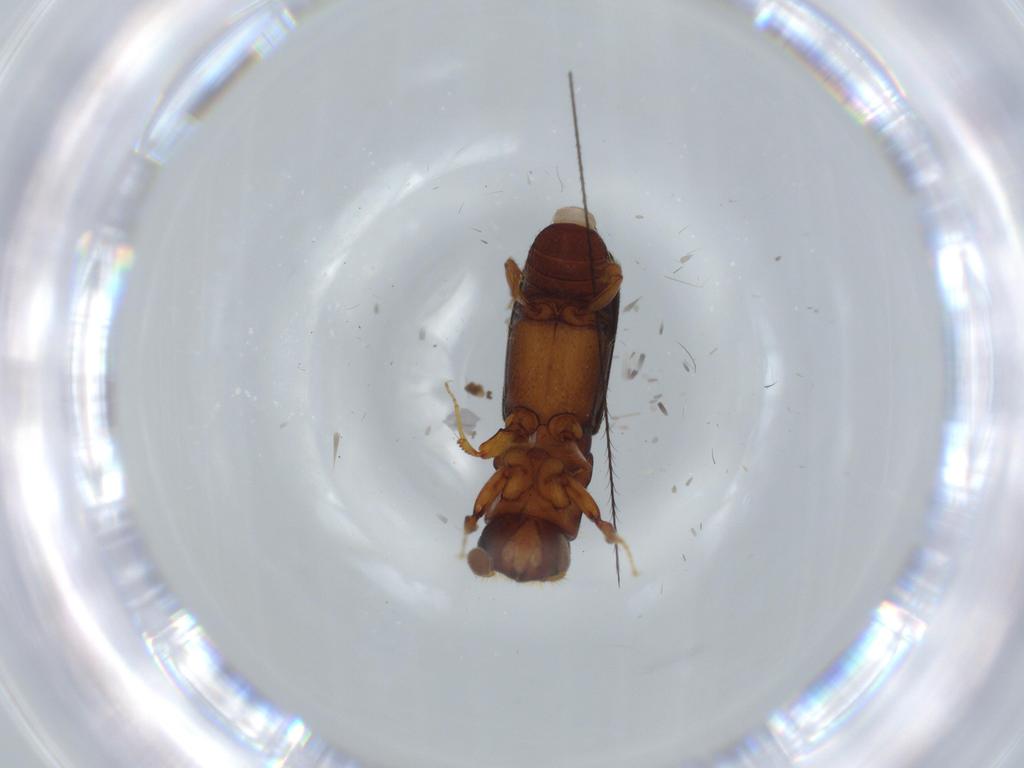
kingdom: Animalia
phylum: Arthropoda
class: Insecta
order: Coleoptera
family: Curculionidae
